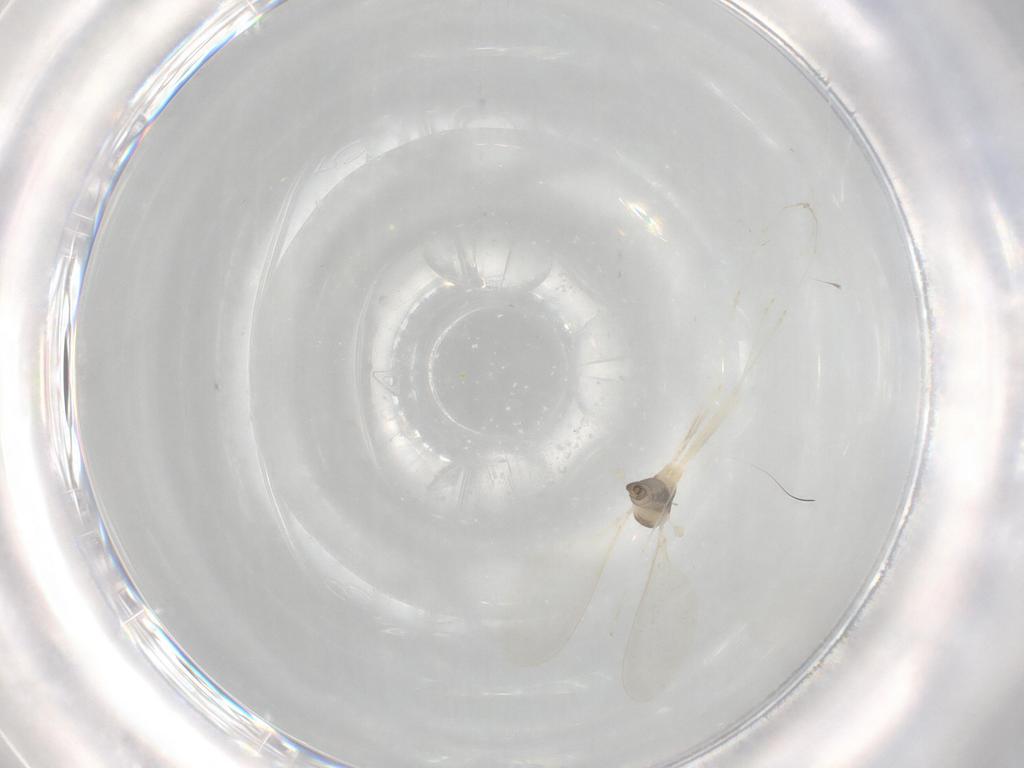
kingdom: Animalia
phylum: Arthropoda
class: Insecta
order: Diptera
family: Cecidomyiidae
